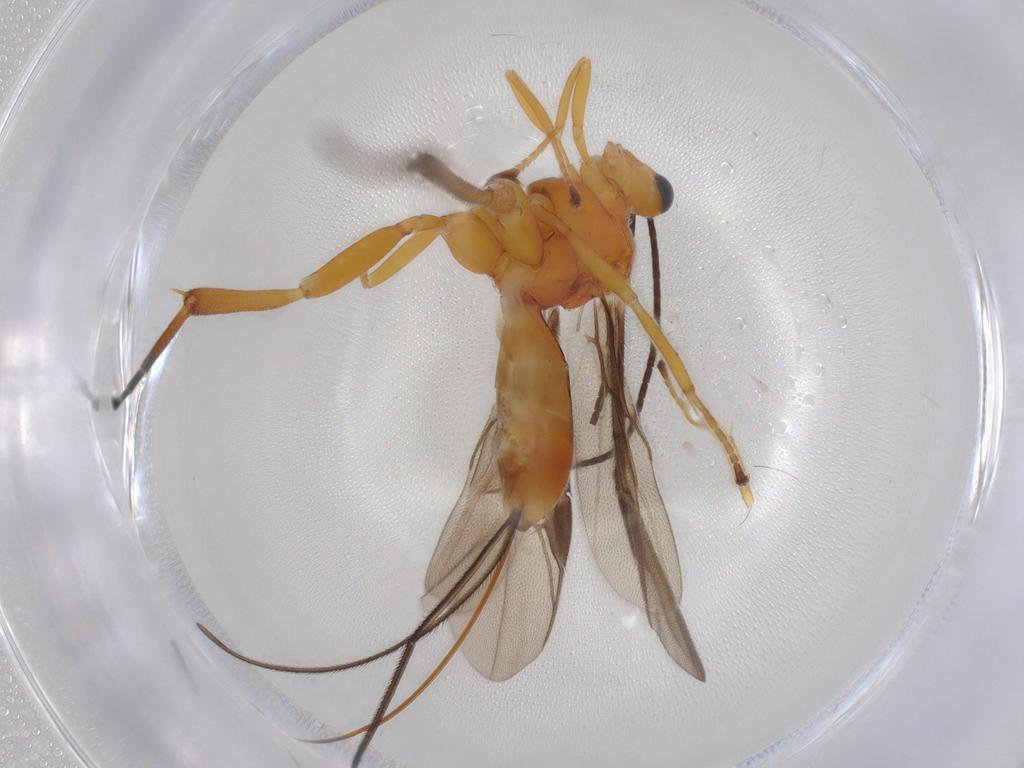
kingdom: Animalia
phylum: Arthropoda
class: Insecta
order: Hymenoptera
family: Braconidae
